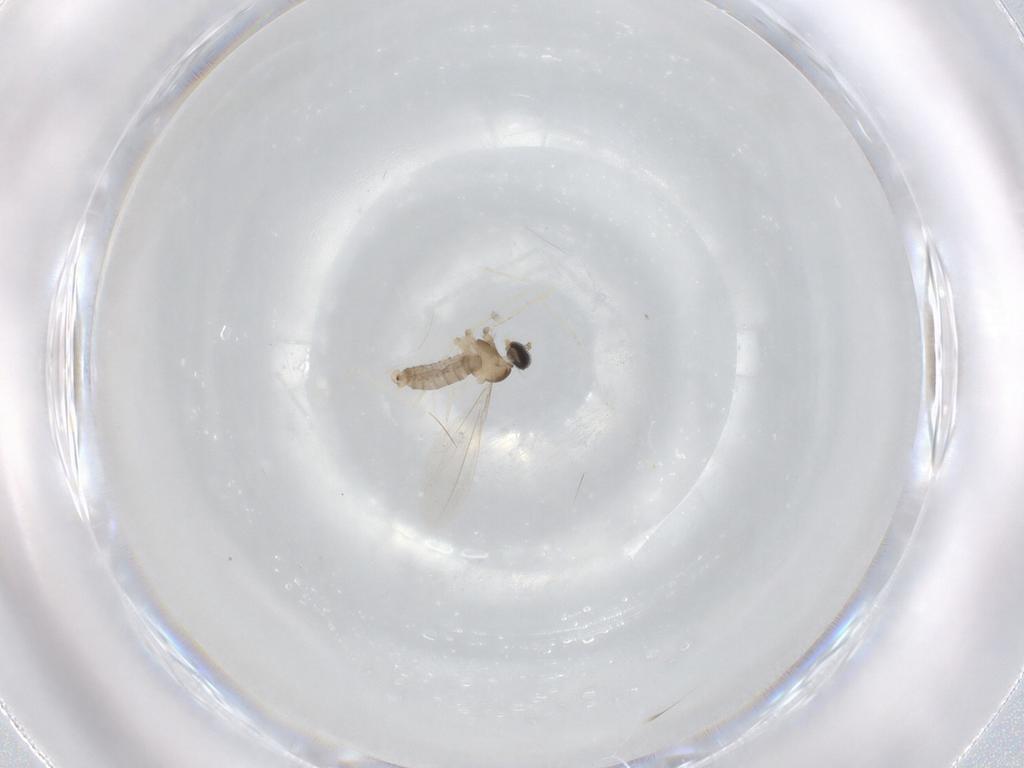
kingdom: Animalia
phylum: Arthropoda
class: Insecta
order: Diptera
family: Cecidomyiidae
